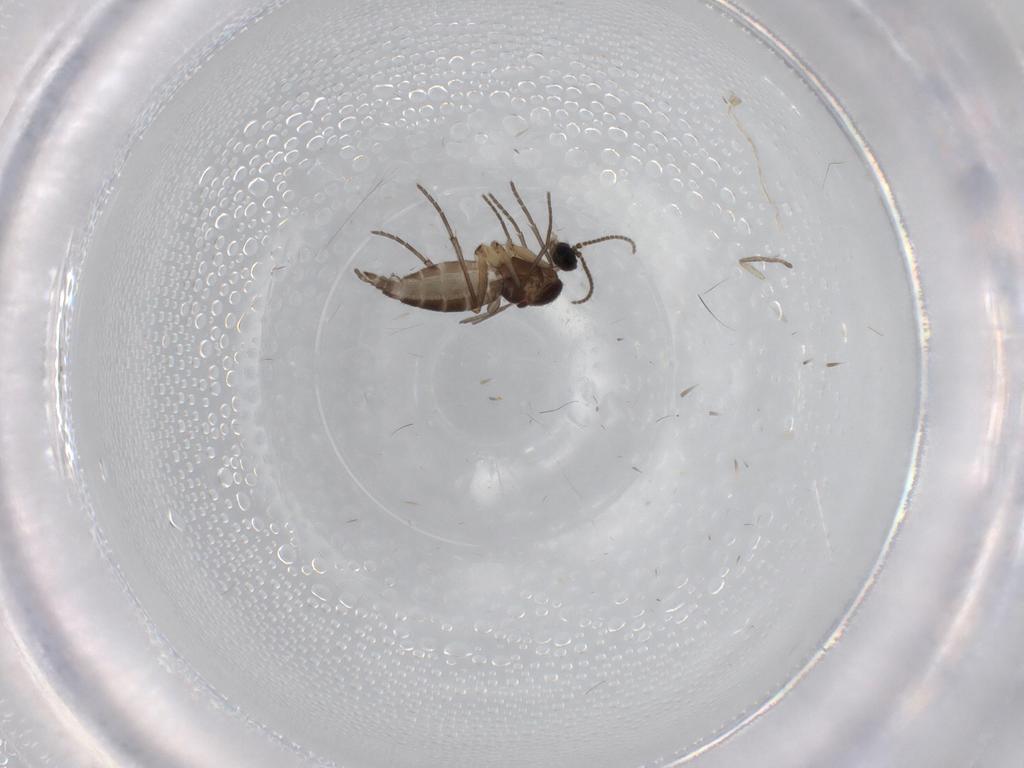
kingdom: Animalia
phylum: Arthropoda
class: Insecta
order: Diptera
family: Sciaridae
